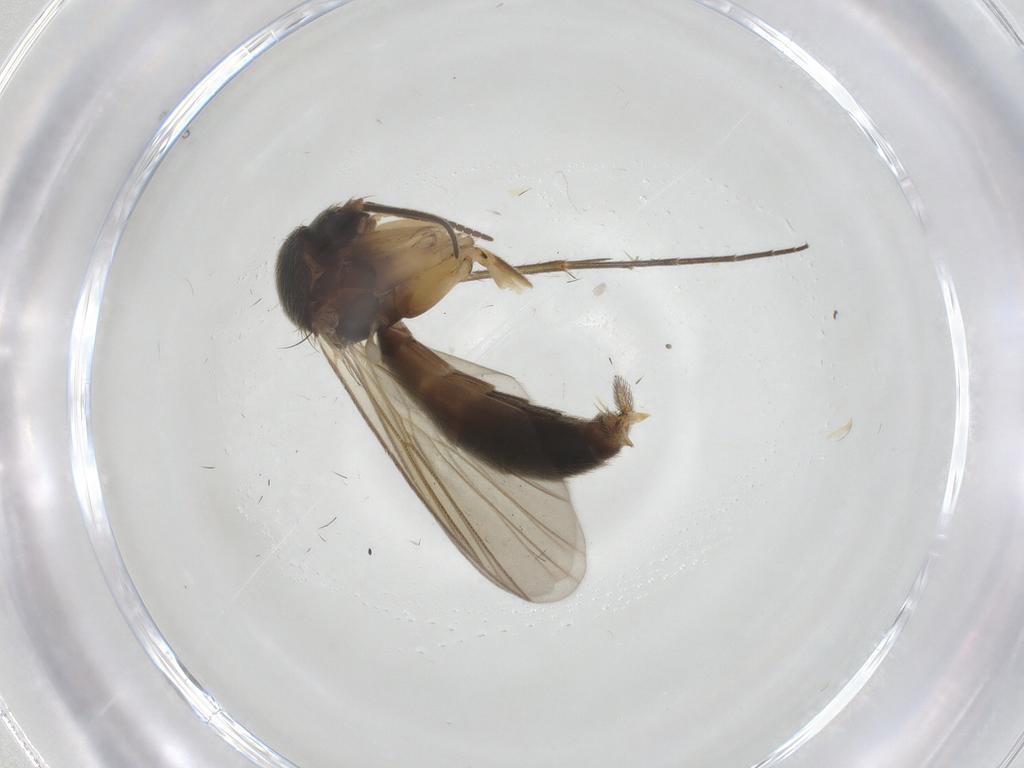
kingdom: Animalia
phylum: Arthropoda
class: Insecta
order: Diptera
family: Mycetophilidae
